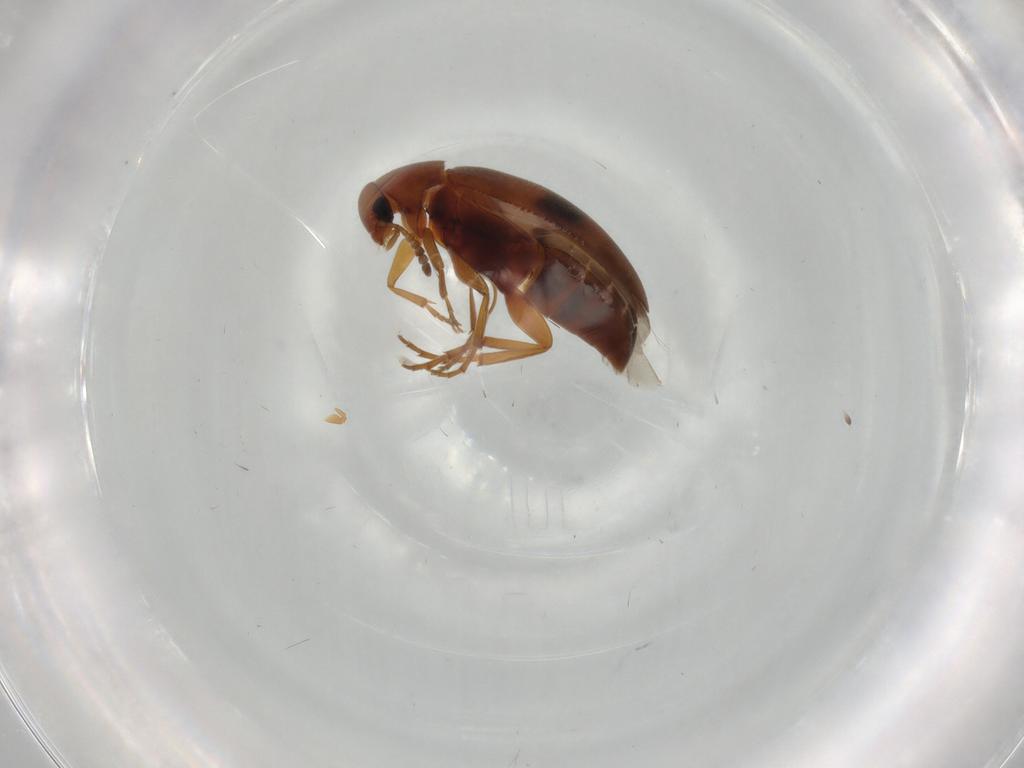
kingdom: Animalia
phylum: Arthropoda
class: Insecta
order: Coleoptera
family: Scraptiidae
